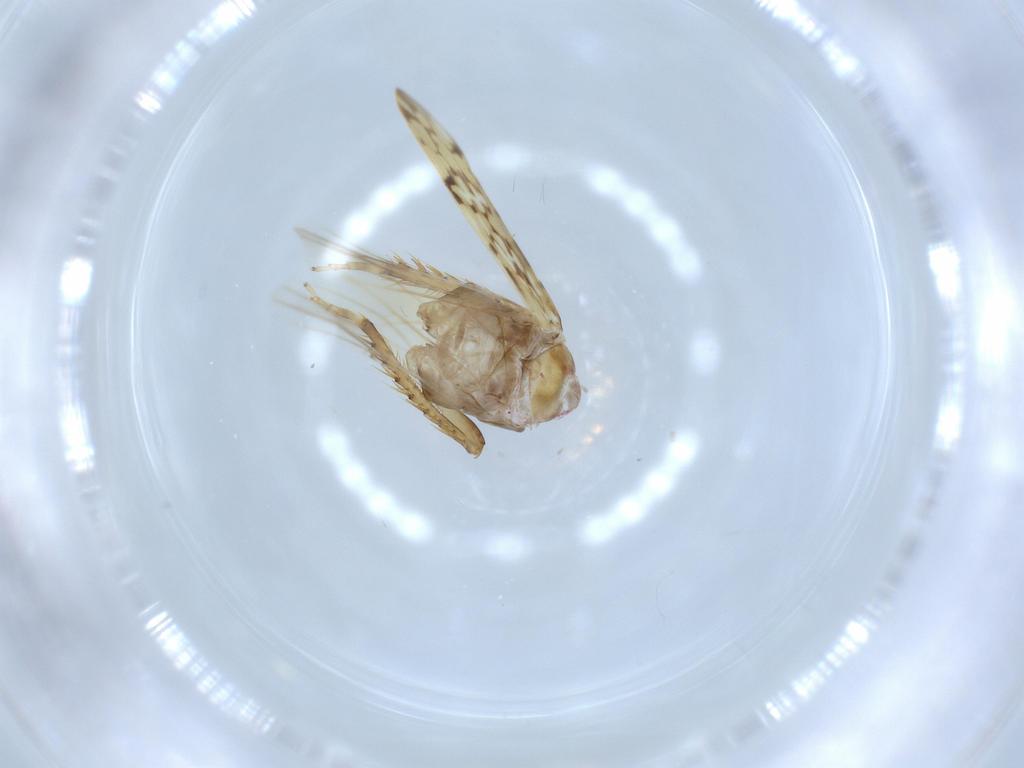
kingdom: Animalia
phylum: Arthropoda
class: Insecta
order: Hemiptera
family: Cicadellidae
